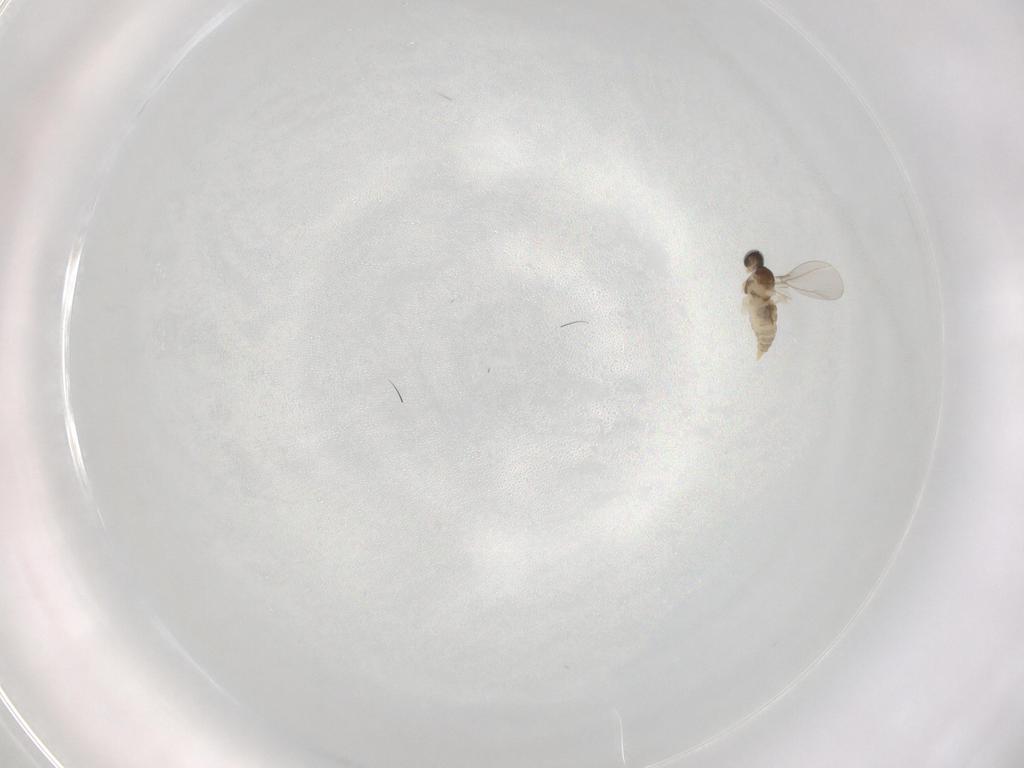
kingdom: Animalia
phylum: Arthropoda
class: Insecta
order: Diptera
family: Cecidomyiidae
